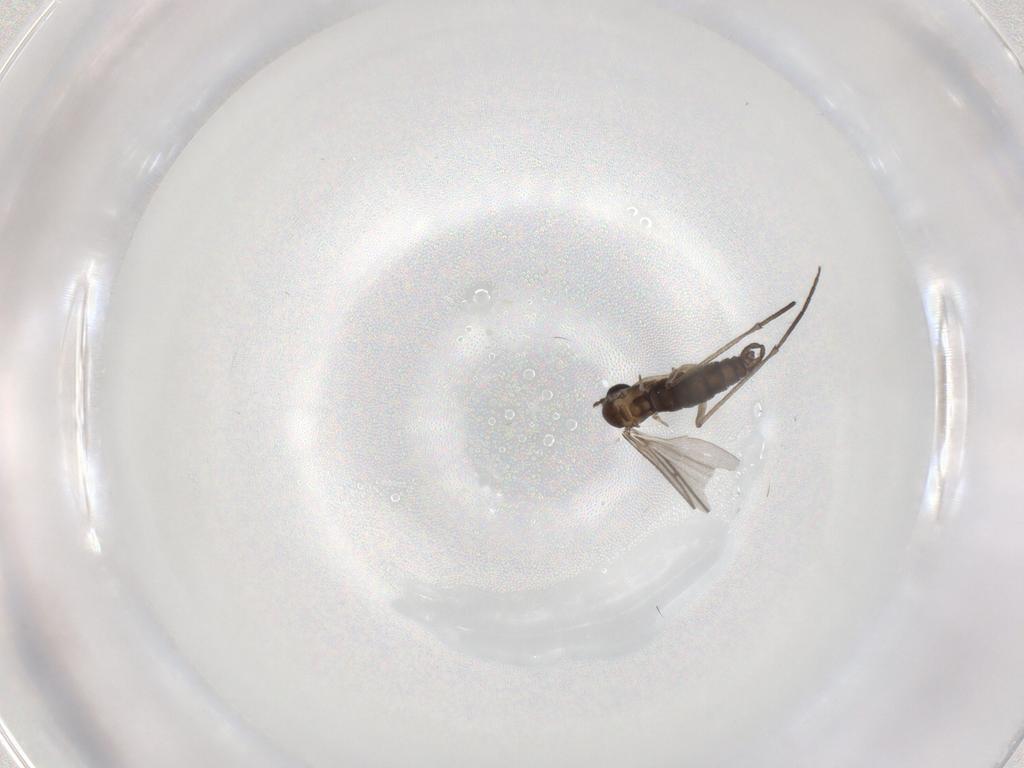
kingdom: Animalia
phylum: Arthropoda
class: Insecta
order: Diptera
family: Sciaridae
